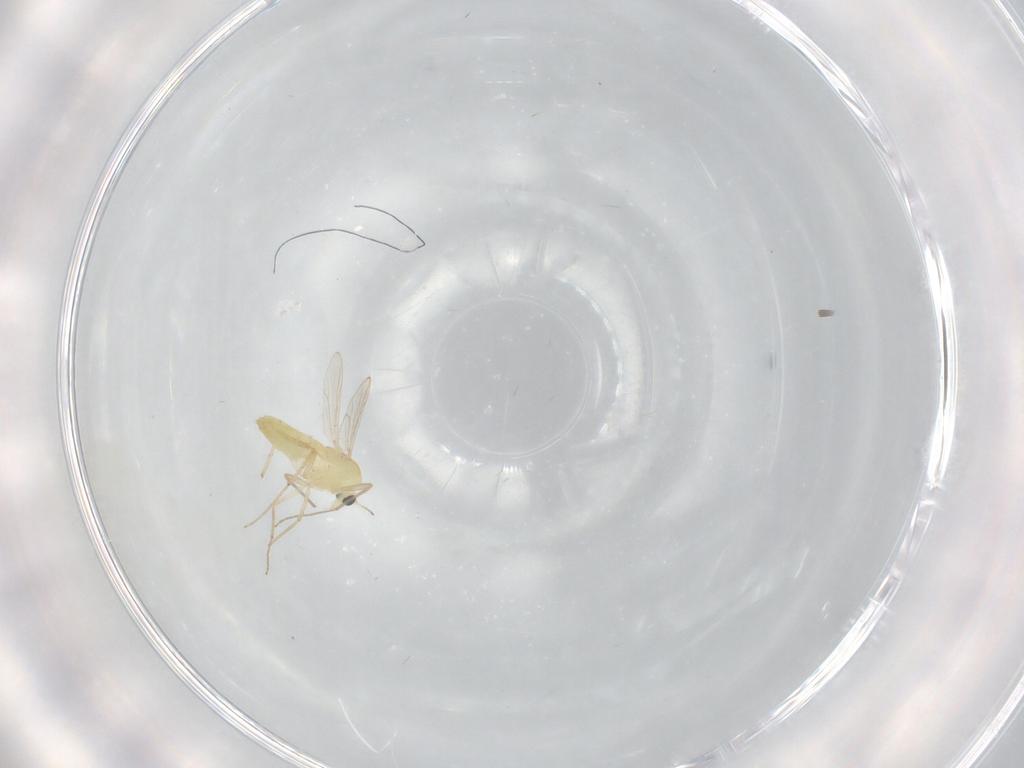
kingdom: Animalia
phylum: Arthropoda
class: Insecta
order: Diptera
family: Chironomidae
